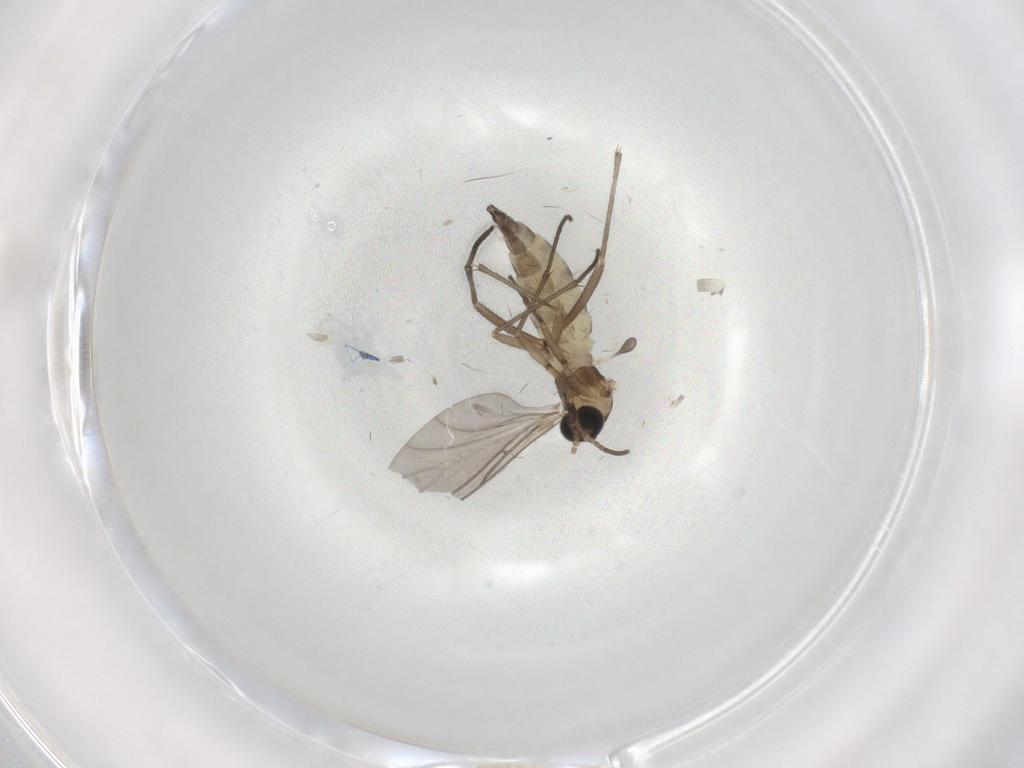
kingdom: Animalia
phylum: Arthropoda
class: Insecta
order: Diptera
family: Sciaridae
